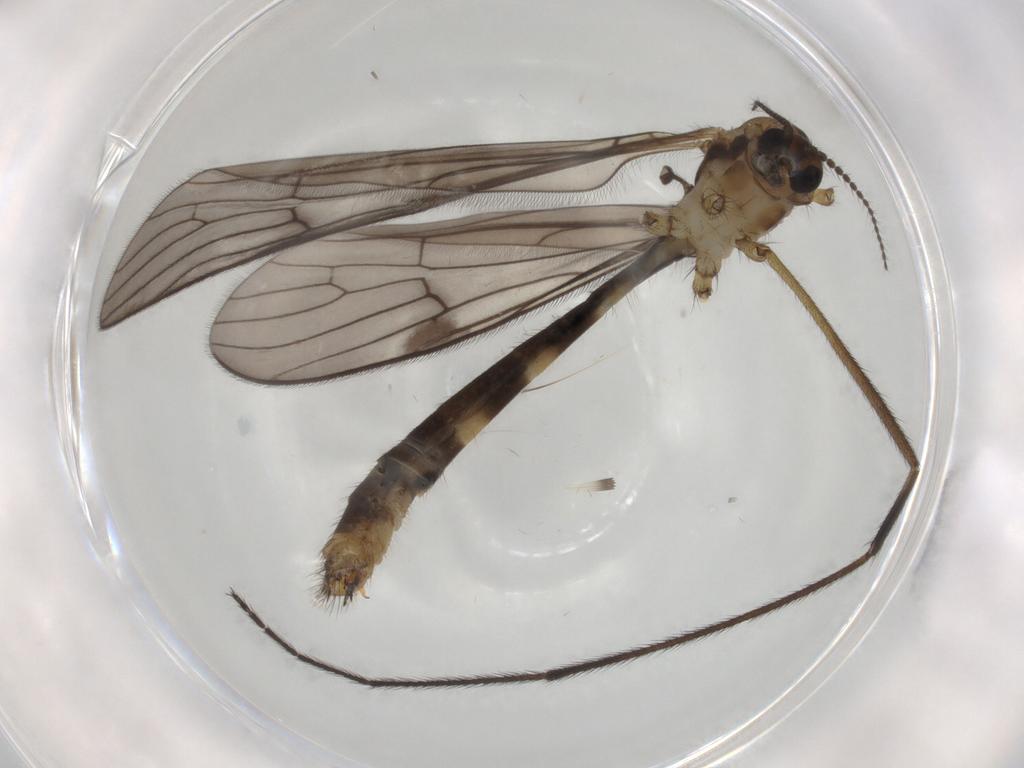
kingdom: Animalia
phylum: Arthropoda
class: Insecta
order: Diptera
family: Limoniidae
